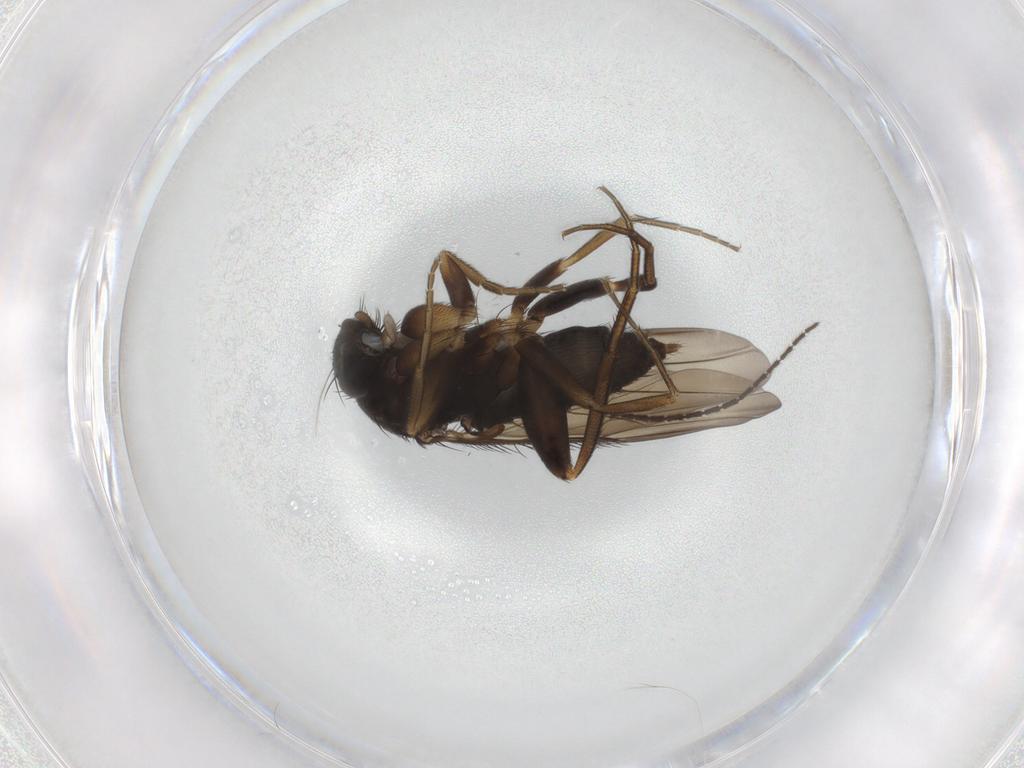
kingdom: Animalia
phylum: Arthropoda
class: Insecta
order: Diptera
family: Phoridae
